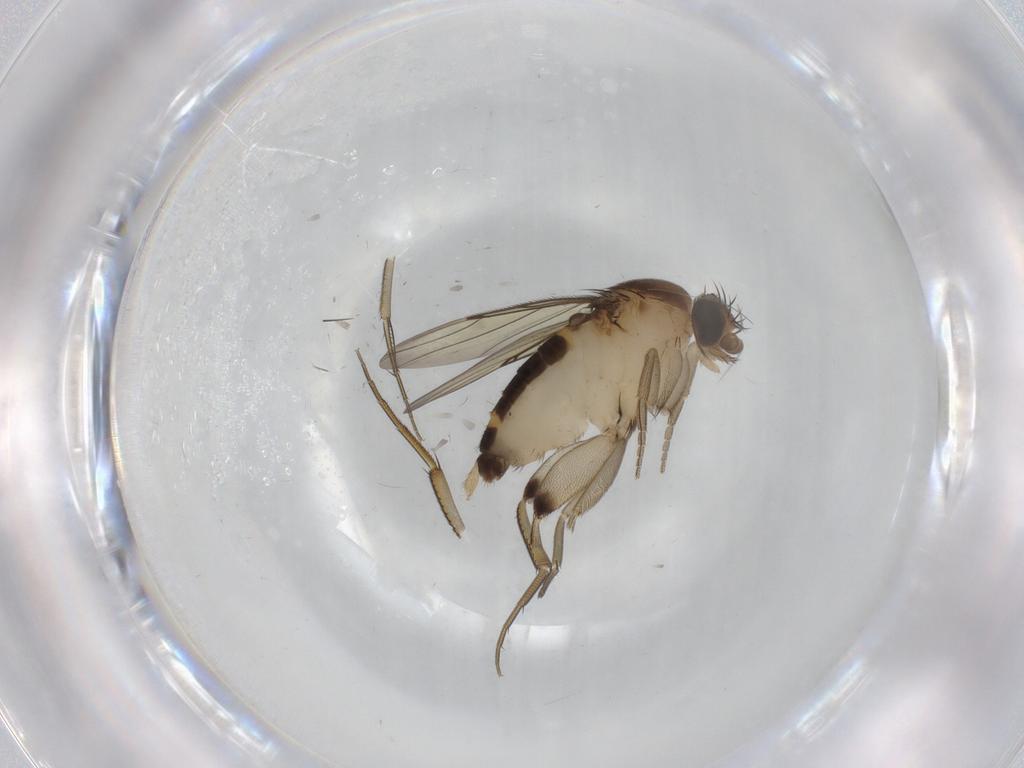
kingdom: Animalia
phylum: Arthropoda
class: Insecta
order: Diptera
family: Phoridae
